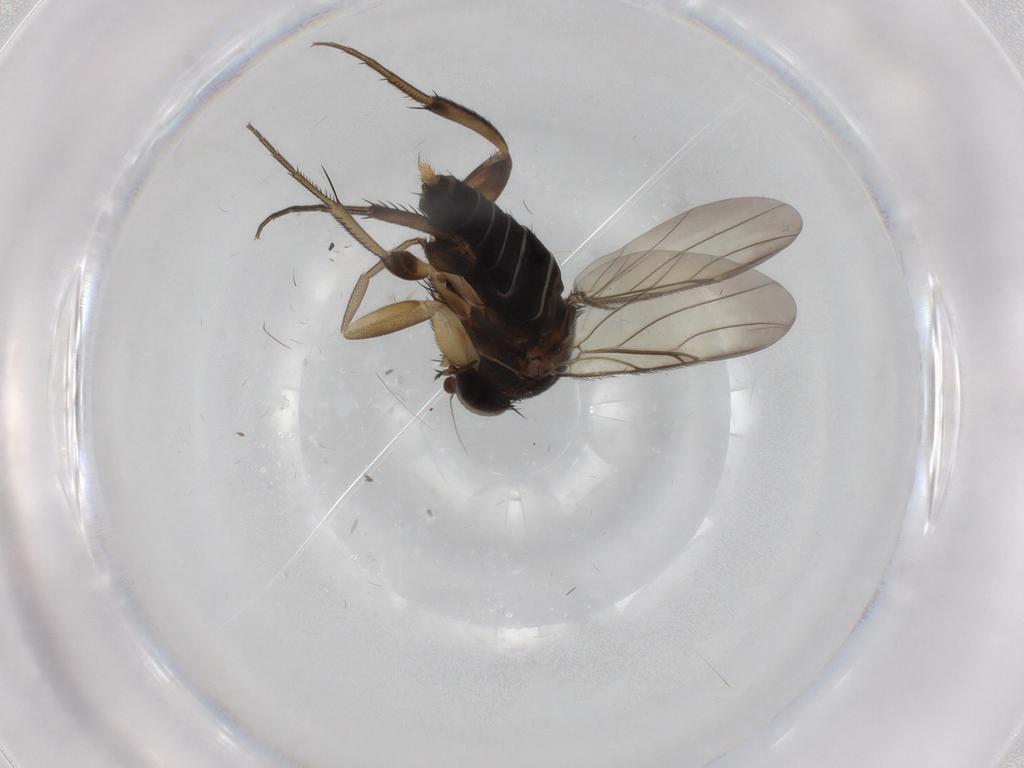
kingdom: Animalia
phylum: Arthropoda
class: Insecta
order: Diptera
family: Phoridae
